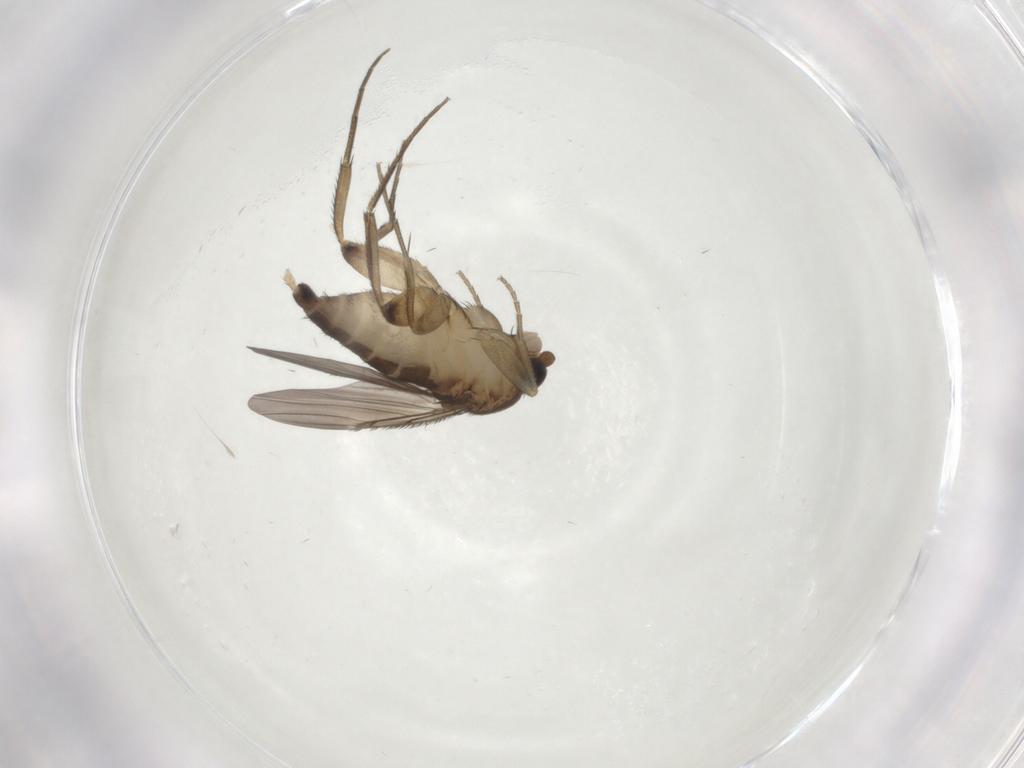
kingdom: Animalia
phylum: Arthropoda
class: Insecta
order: Diptera
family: Phoridae
